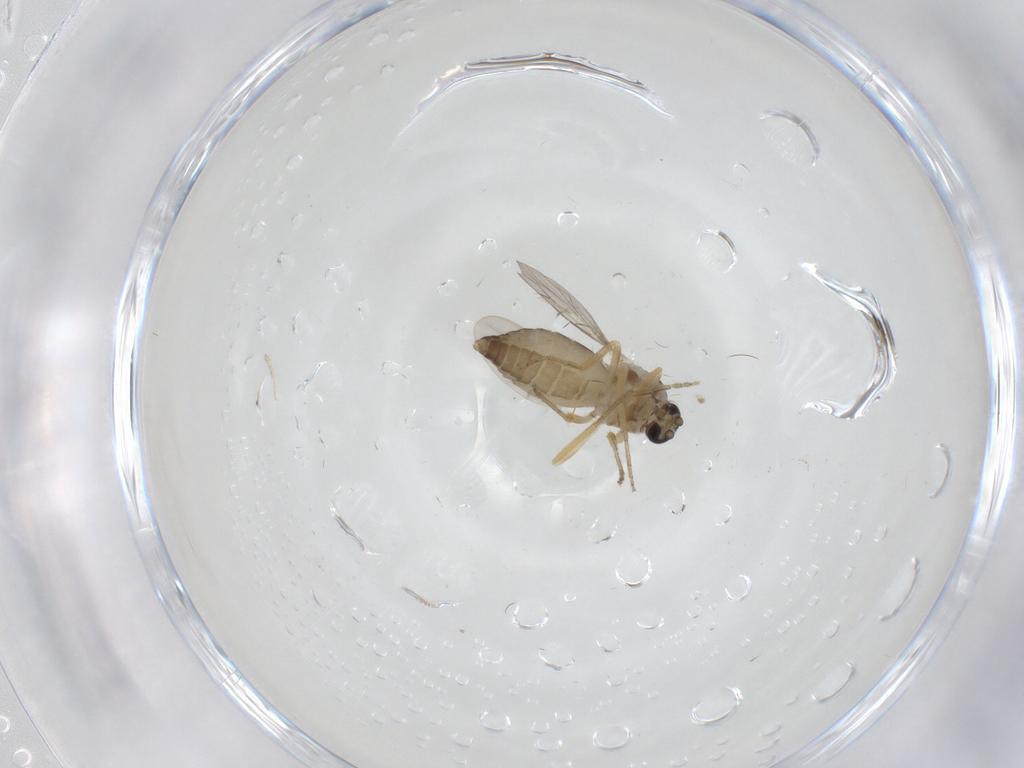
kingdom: Animalia
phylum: Arthropoda
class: Insecta
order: Diptera
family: Ceratopogonidae
